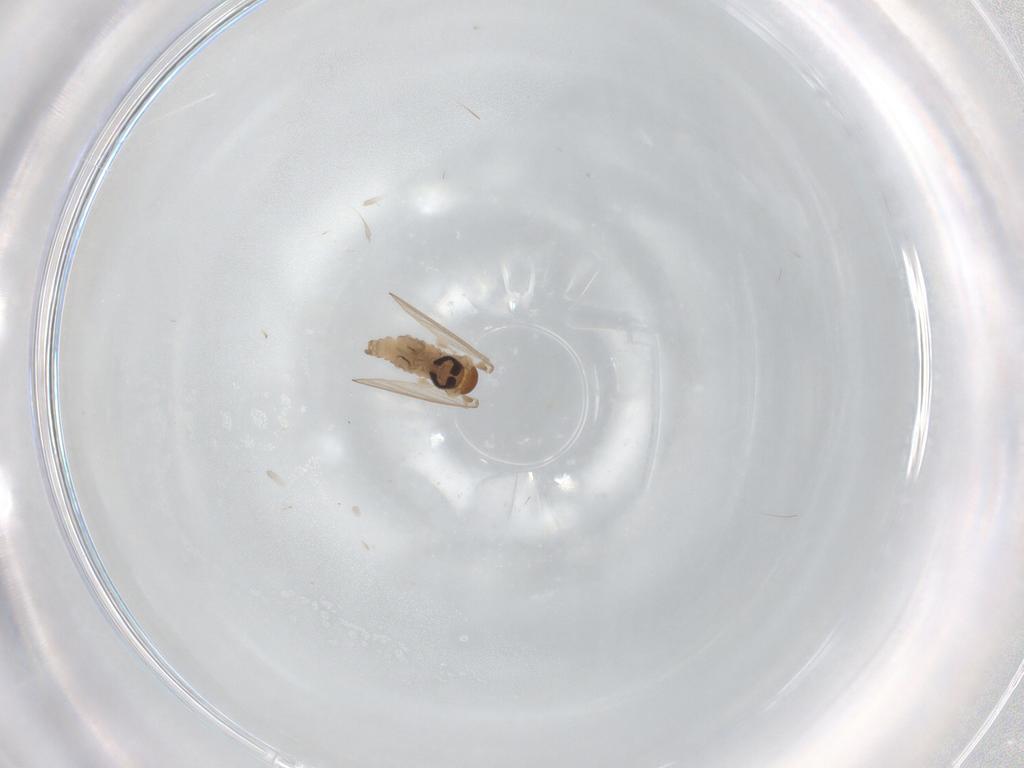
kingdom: Animalia
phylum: Arthropoda
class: Insecta
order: Diptera
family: Psychodidae
